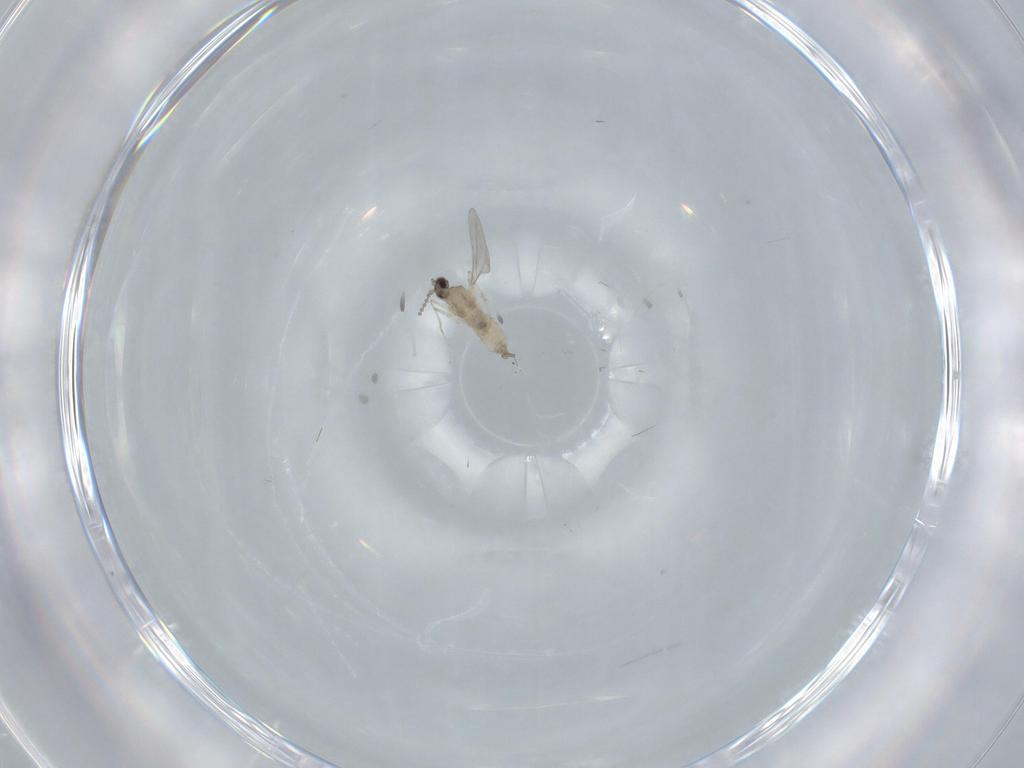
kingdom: Animalia
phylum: Arthropoda
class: Insecta
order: Diptera
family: Cecidomyiidae
